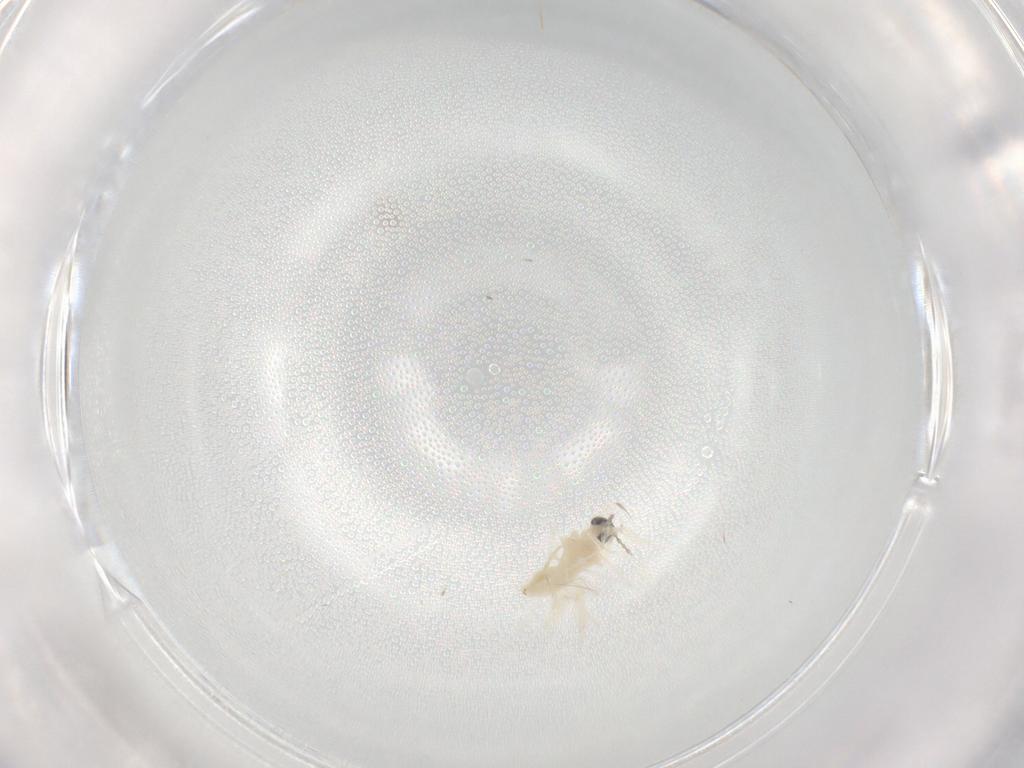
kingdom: Animalia
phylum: Arthropoda
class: Insecta
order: Diptera
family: Cecidomyiidae
